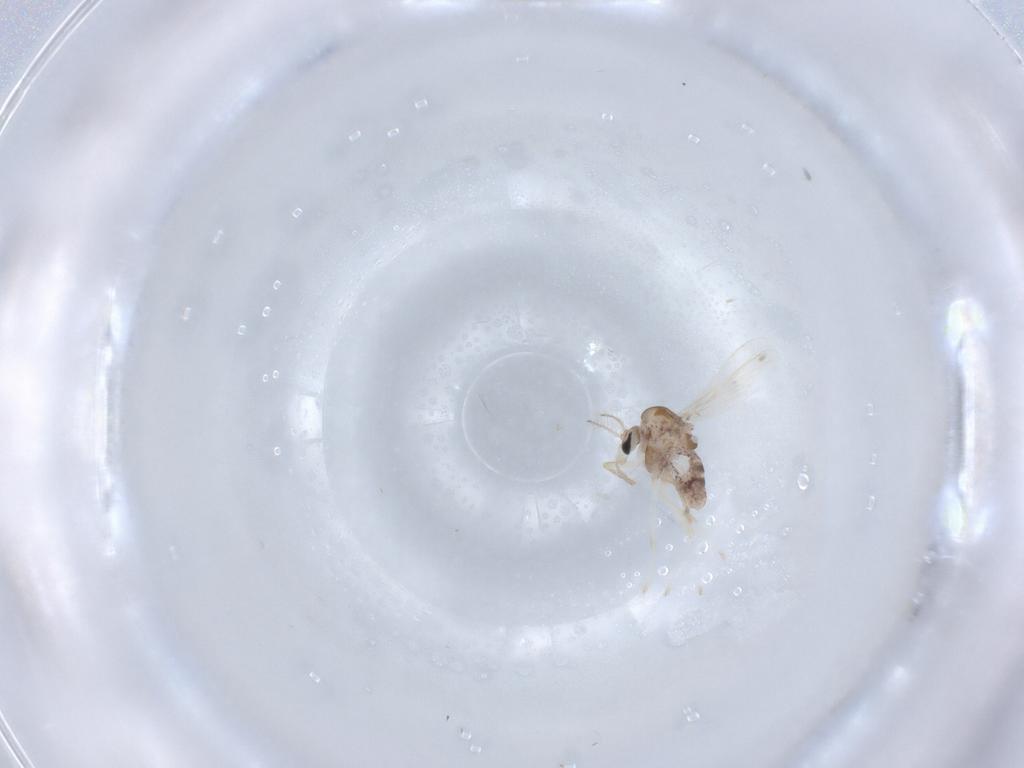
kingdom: Animalia
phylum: Arthropoda
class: Insecta
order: Diptera
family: Chironomidae
